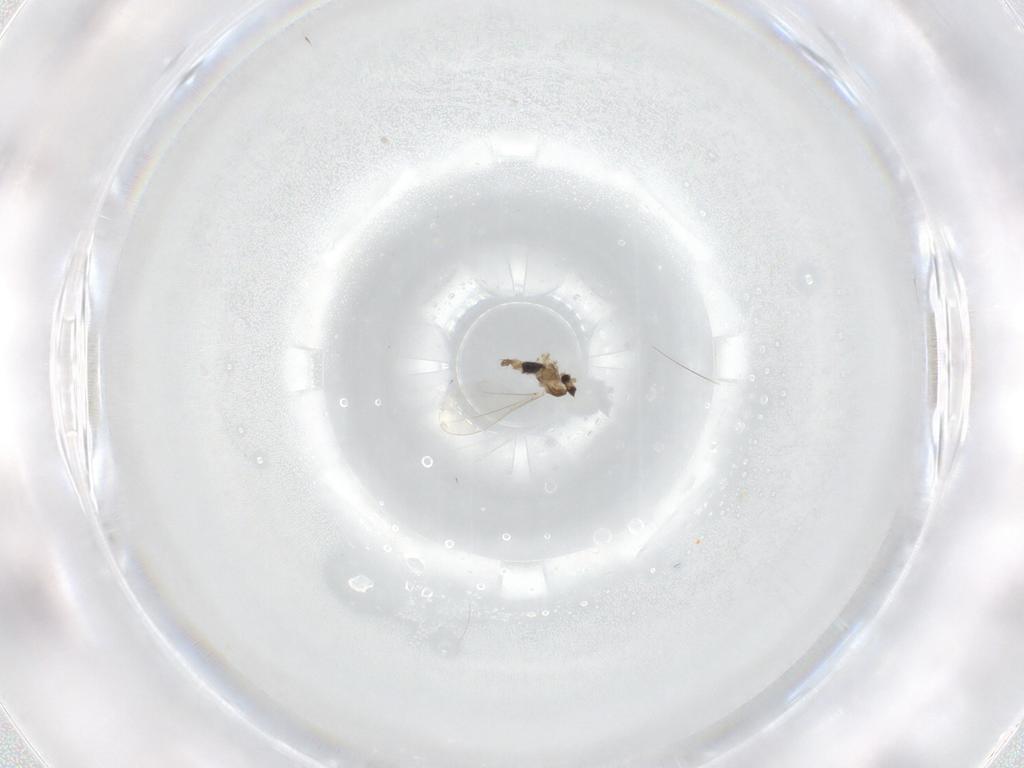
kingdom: Animalia
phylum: Arthropoda
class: Insecta
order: Diptera
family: Cecidomyiidae
